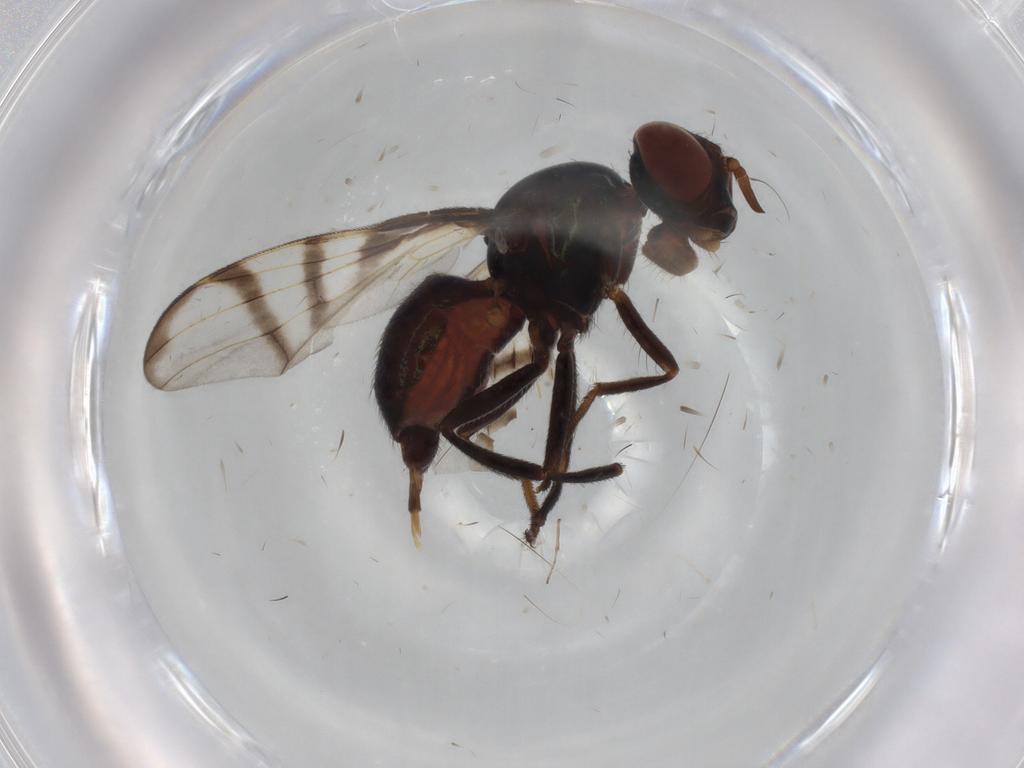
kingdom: Animalia
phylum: Arthropoda
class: Insecta
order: Diptera
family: Platystomatidae
